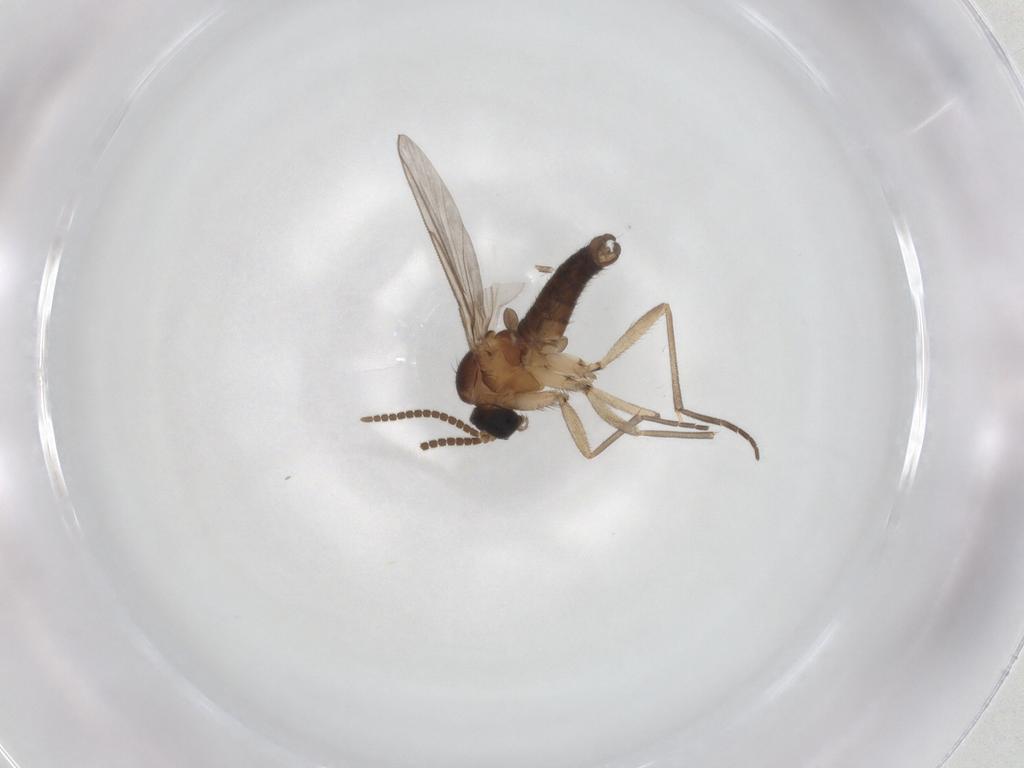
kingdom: Animalia
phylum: Arthropoda
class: Insecta
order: Diptera
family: Sciaridae
